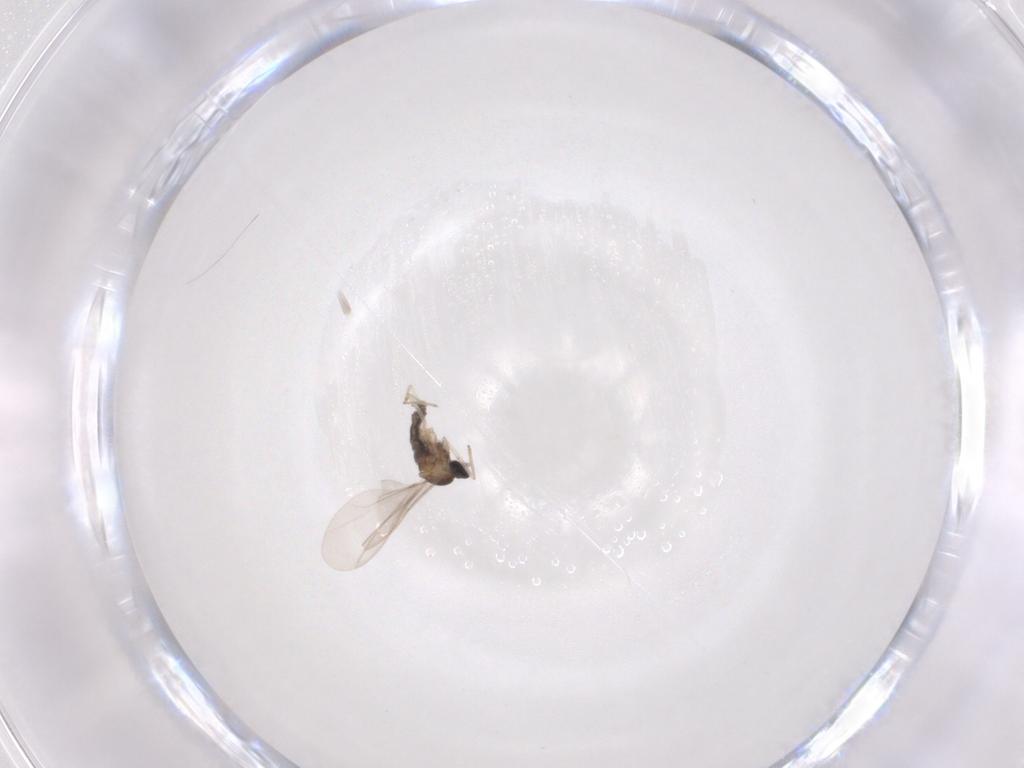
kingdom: Animalia
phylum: Arthropoda
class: Insecta
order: Diptera
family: Cecidomyiidae
